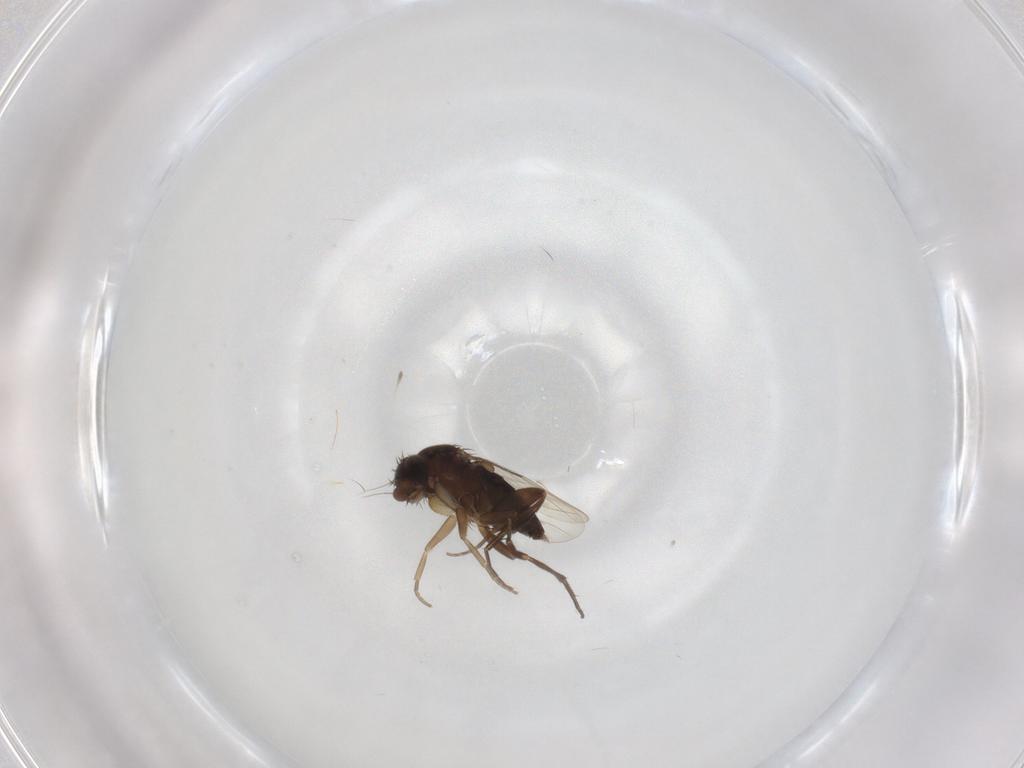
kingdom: Animalia
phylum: Arthropoda
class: Insecta
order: Diptera
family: Phoridae
